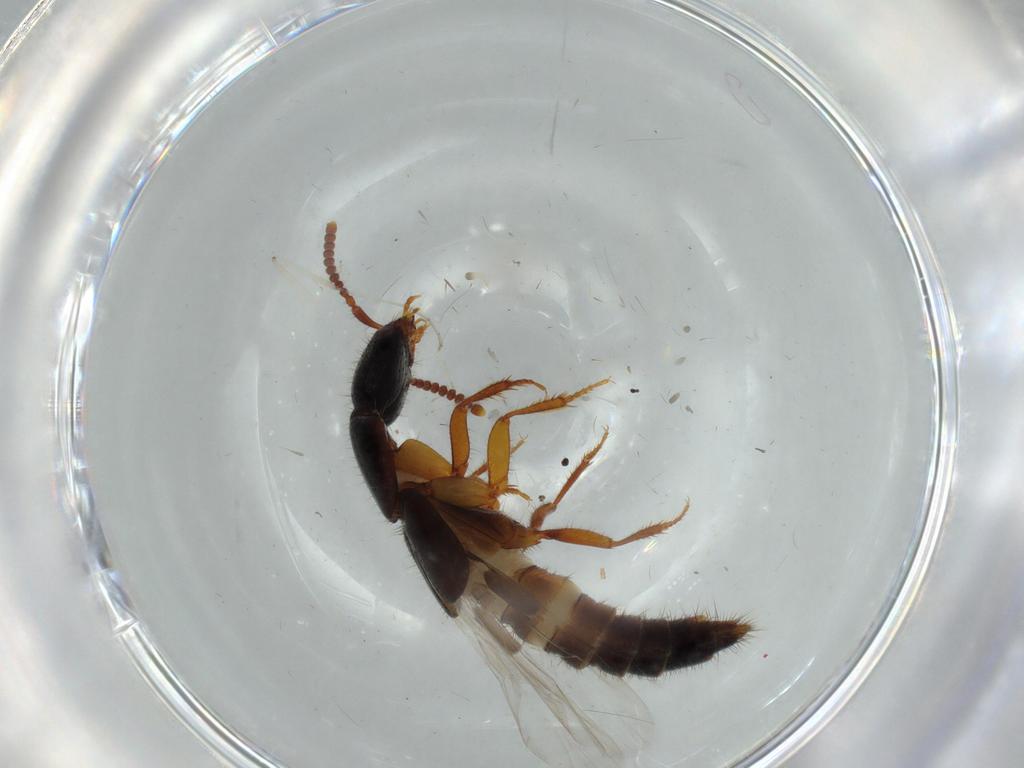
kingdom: Animalia
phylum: Arthropoda
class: Insecta
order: Coleoptera
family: Staphylinidae
